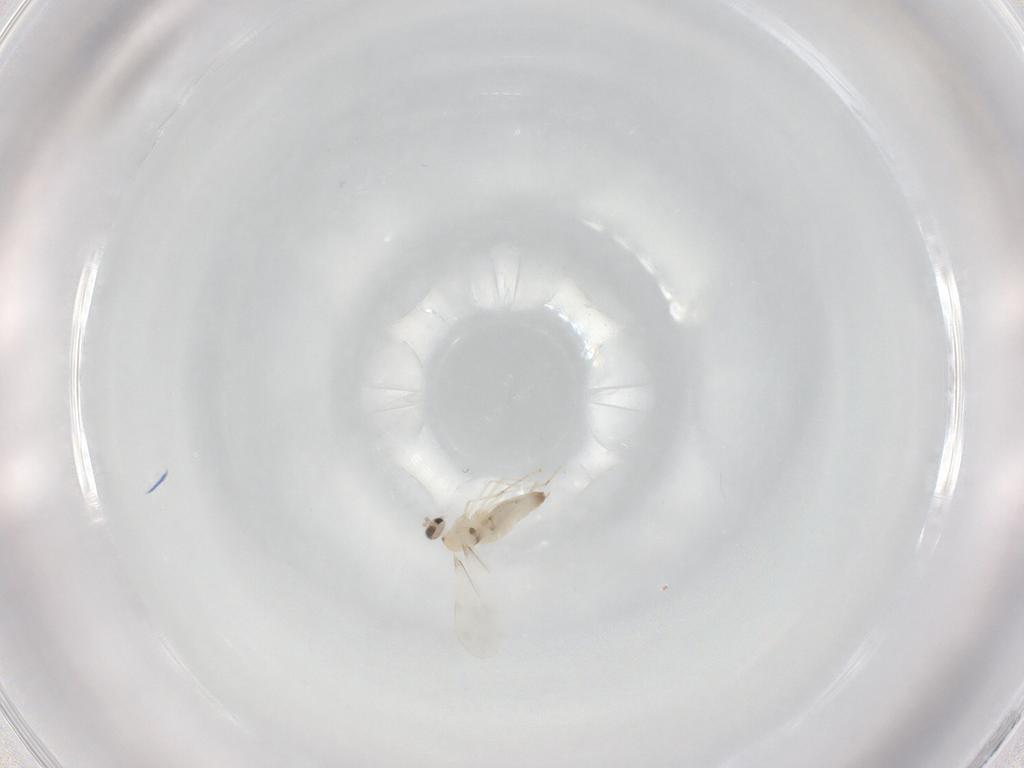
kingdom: Animalia
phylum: Arthropoda
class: Insecta
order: Diptera
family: Cecidomyiidae
